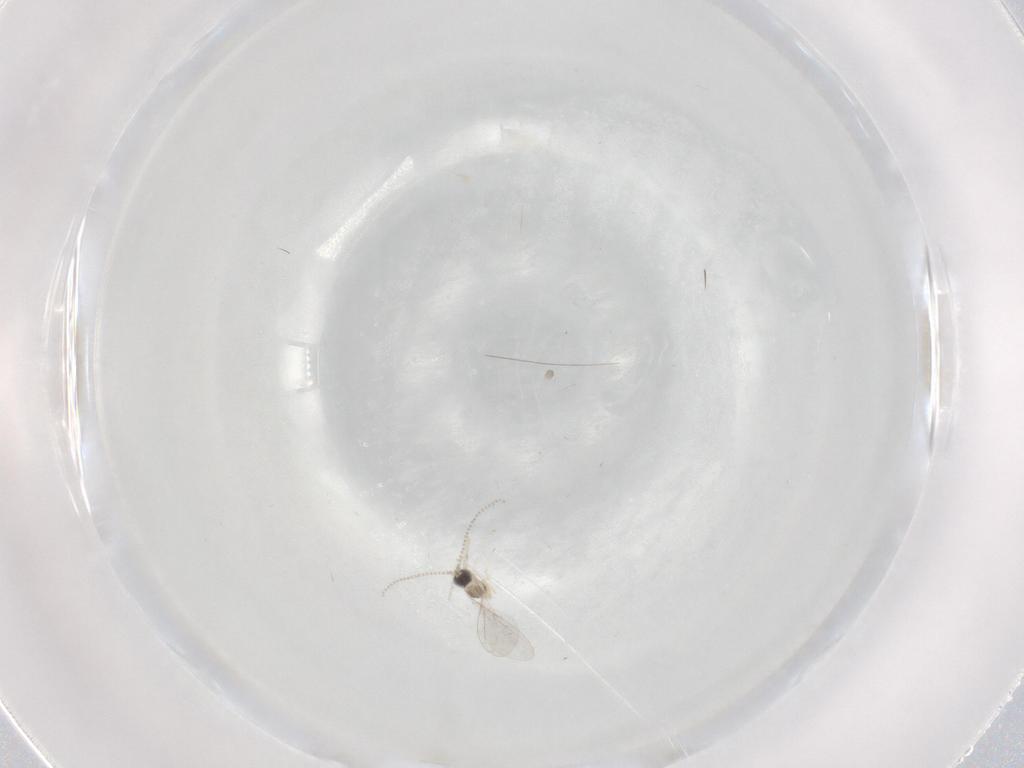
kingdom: Animalia
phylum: Arthropoda
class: Insecta
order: Diptera
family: Cecidomyiidae
